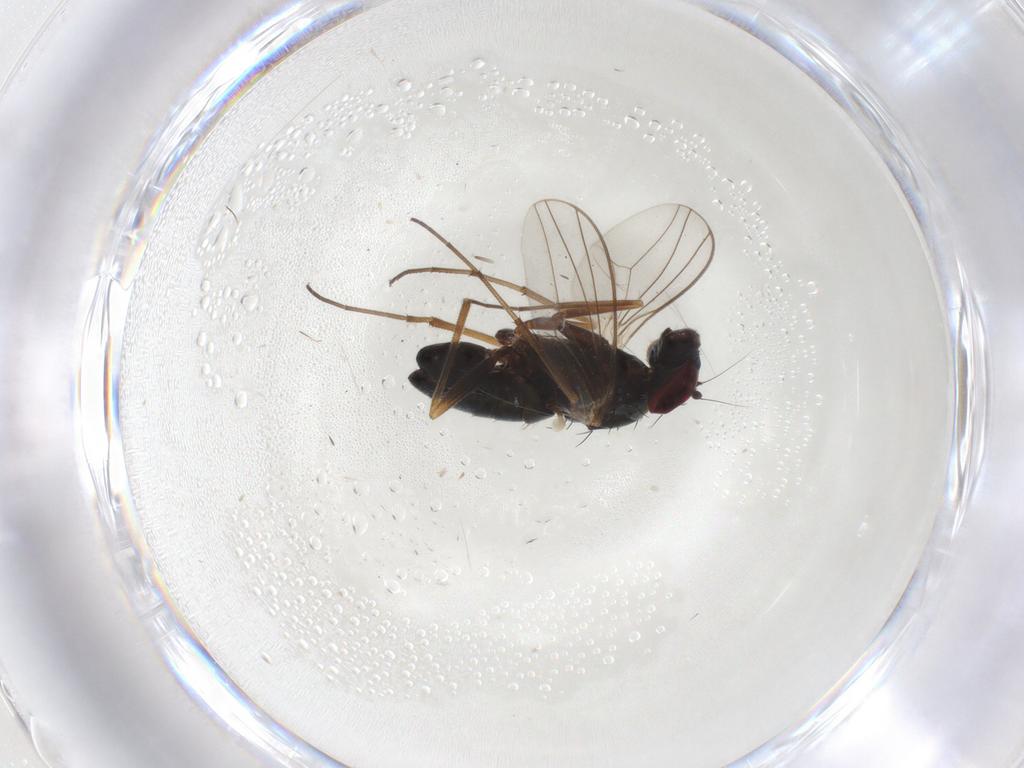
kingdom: Animalia
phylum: Arthropoda
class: Insecta
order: Diptera
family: Dolichopodidae
